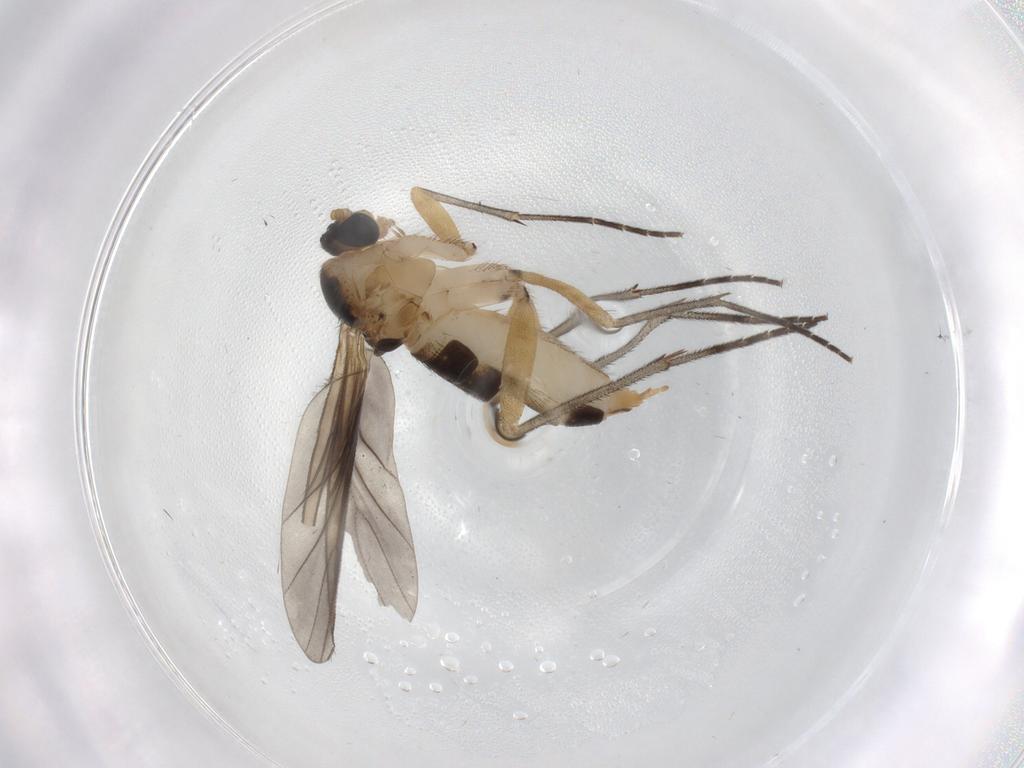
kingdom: Animalia
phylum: Arthropoda
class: Insecta
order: Diptera
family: Sciaridae
